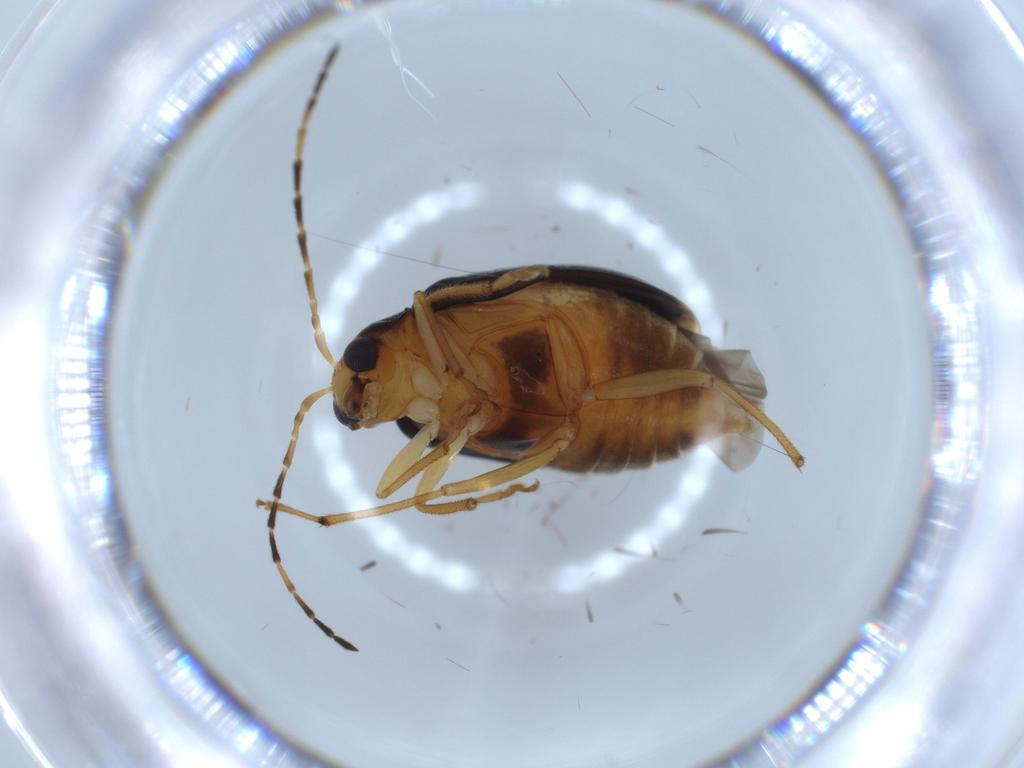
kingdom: Animalia
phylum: Arthropoda
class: Insecta
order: Coleoptera
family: Chrysomelidae
